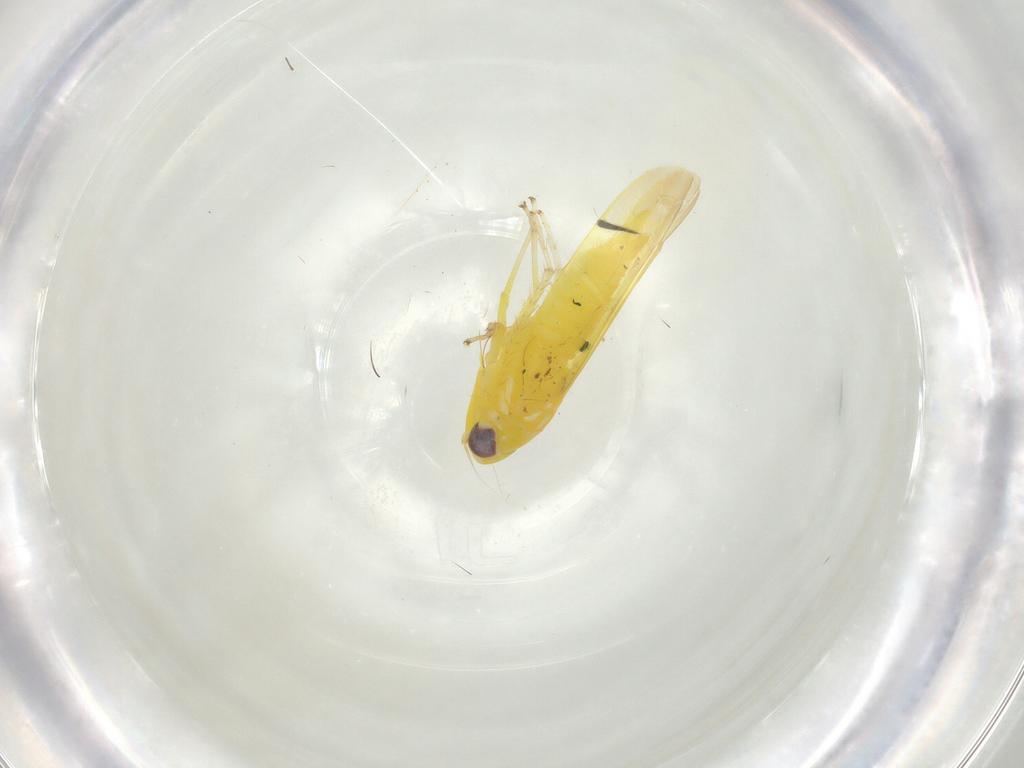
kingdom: Animalia
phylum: Arthropoda
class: Insecta
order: Hemiptera
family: Cicadellidae
